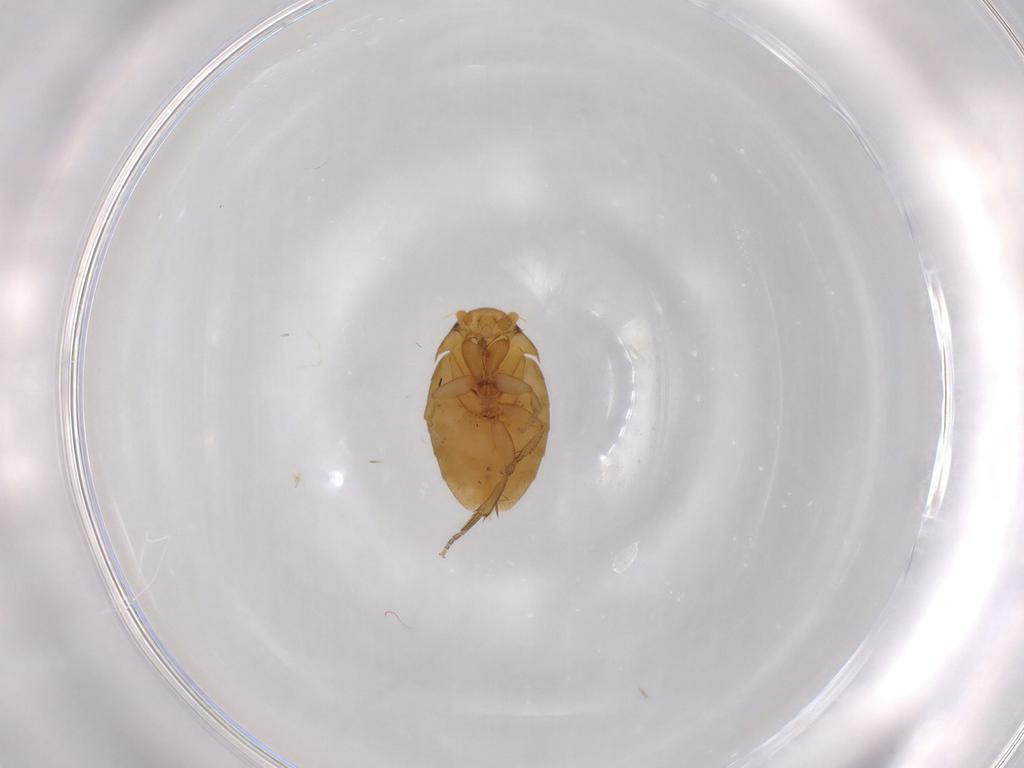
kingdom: Animalia
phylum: Arthropoda
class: Insecta
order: Diptera
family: Phoridae
